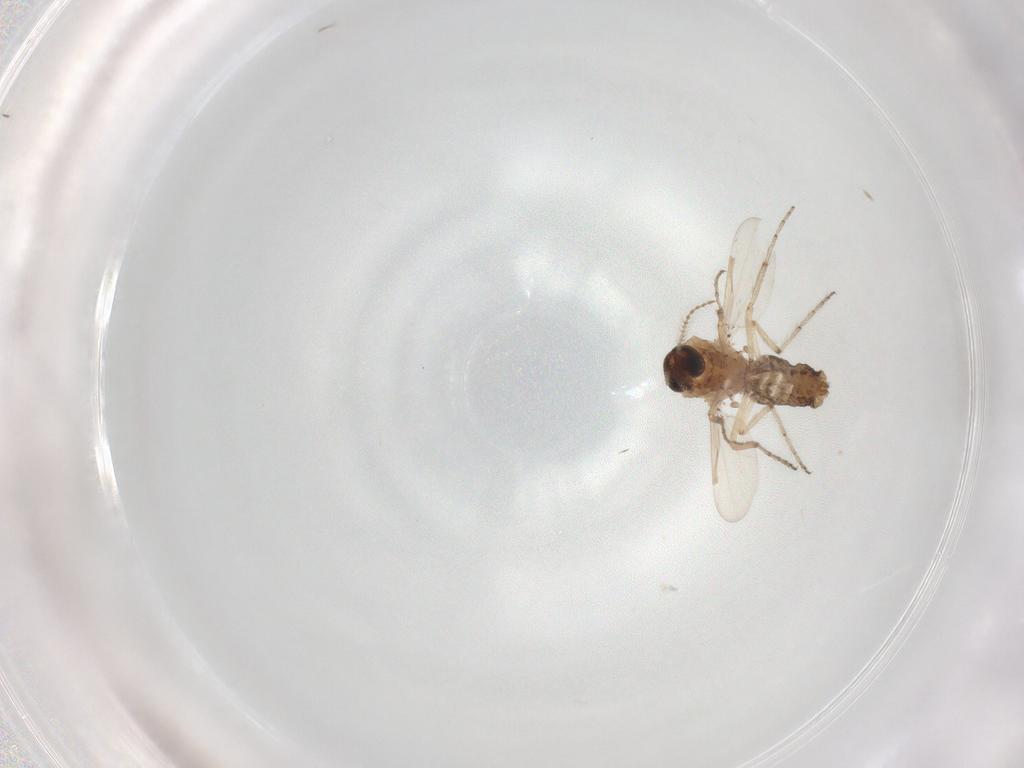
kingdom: Animalia
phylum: Arthropoda
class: Insecta
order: Diptera
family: Ceratopogonidae
